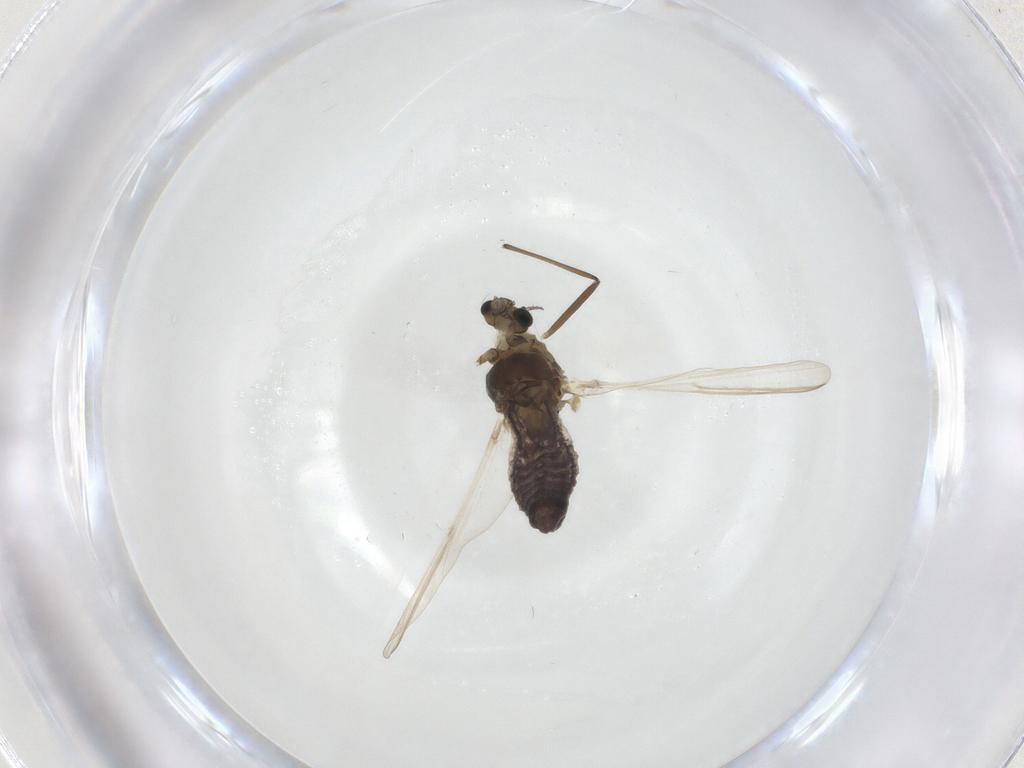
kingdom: Animalia
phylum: Arthropoda
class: Insecta
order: Diptera
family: Chironomidae
